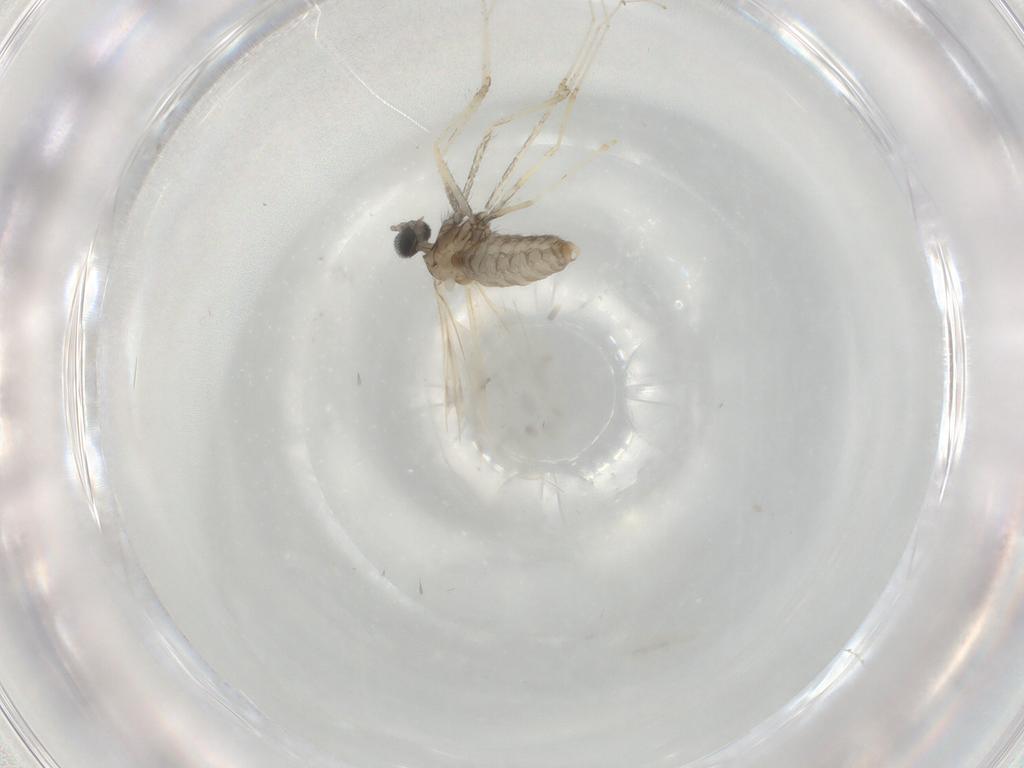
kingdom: Animalia
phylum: Arthropoda
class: Insecta
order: Diptera
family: Cecidomyiidae
